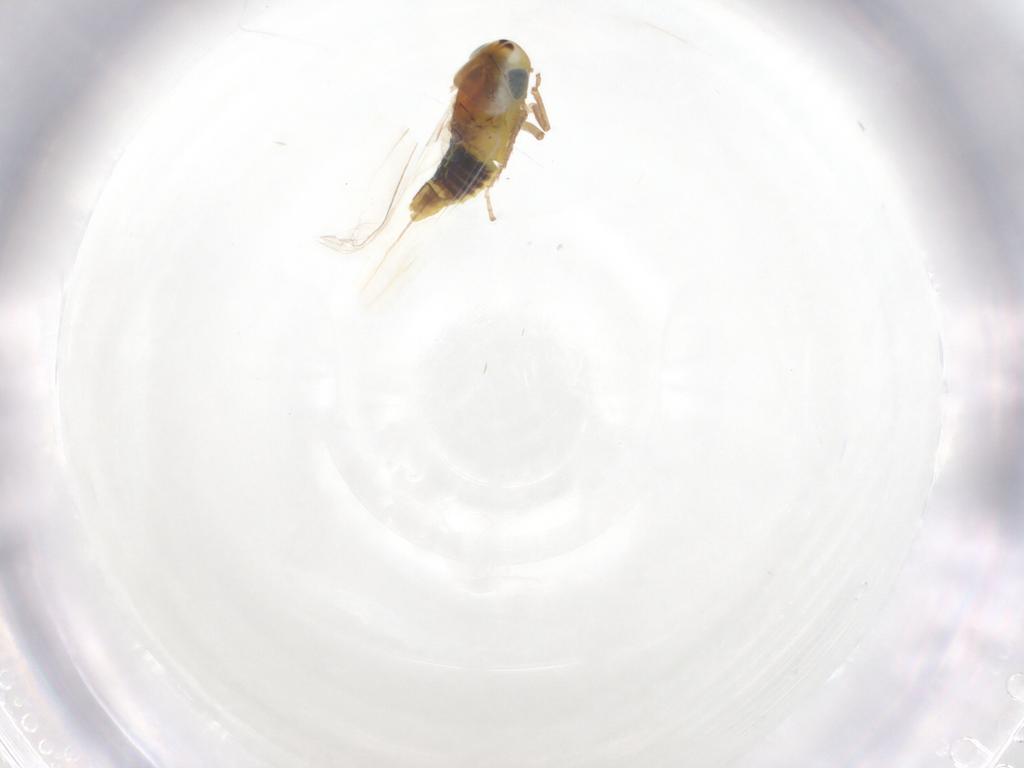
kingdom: Animalia
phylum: Arthropoda
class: Insecta
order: Hemiptera
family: Cicadellidae
